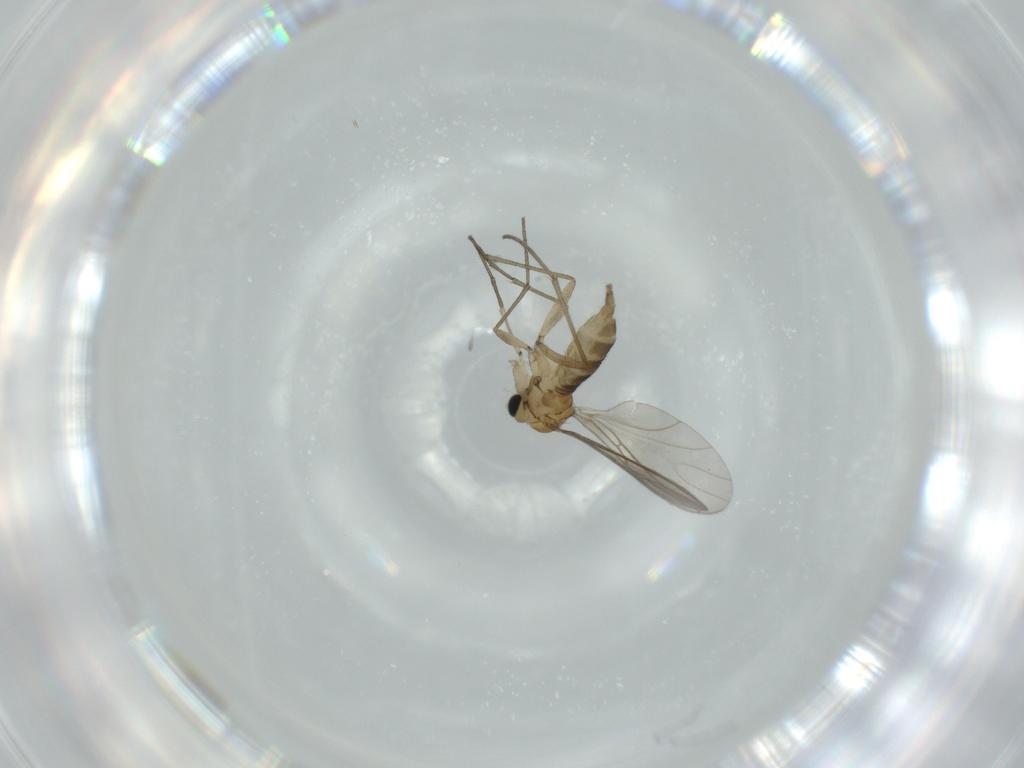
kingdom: Animalia
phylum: Arthropoda
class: Insecta
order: Diptera
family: Sciaridae
